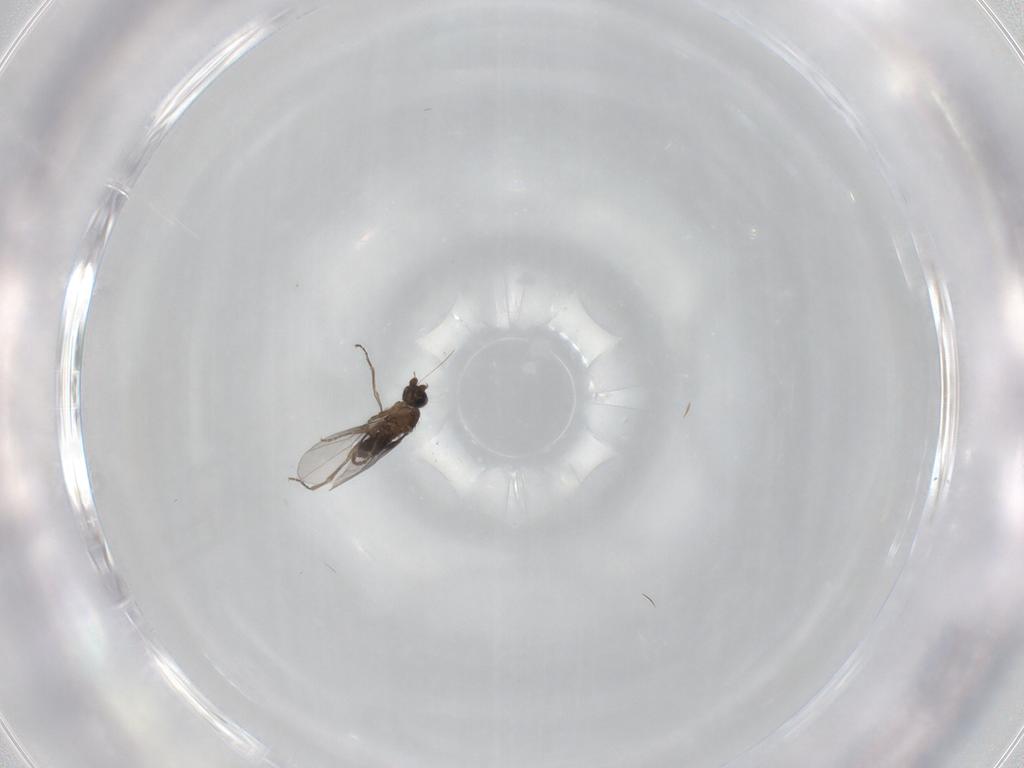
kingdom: Animalia
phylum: Arthropoda
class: Insecta
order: Diptera
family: Phoridae
